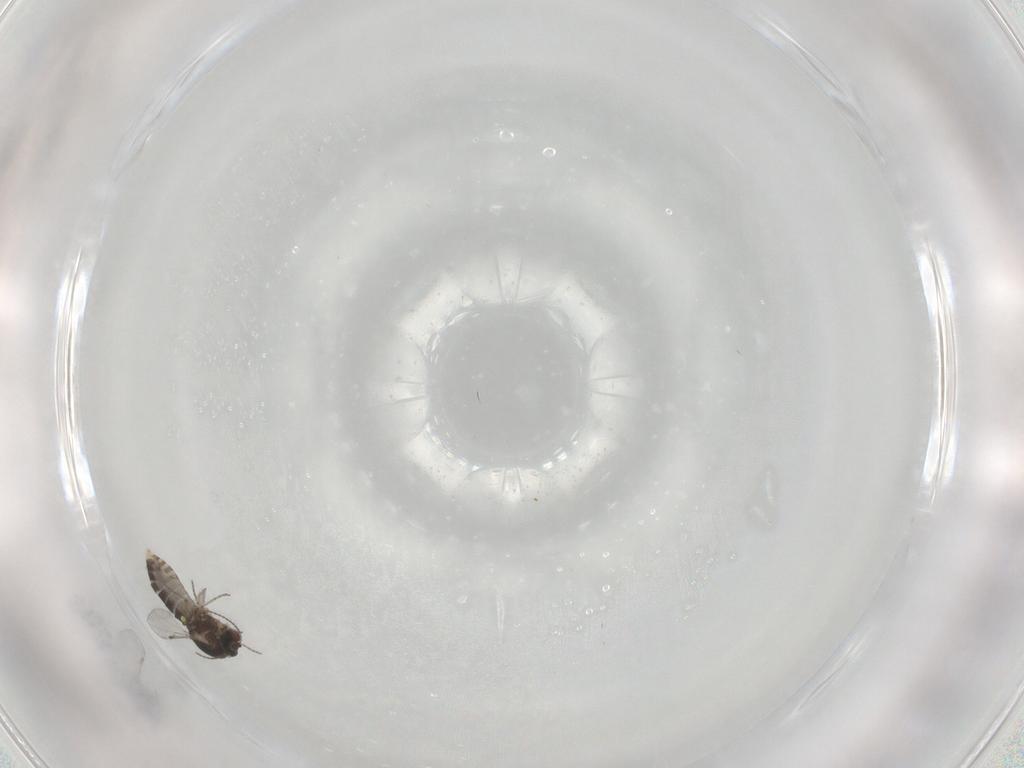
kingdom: Animalia
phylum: Arthropoda
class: Insecta
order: Diptera
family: Ceratopogonidae
